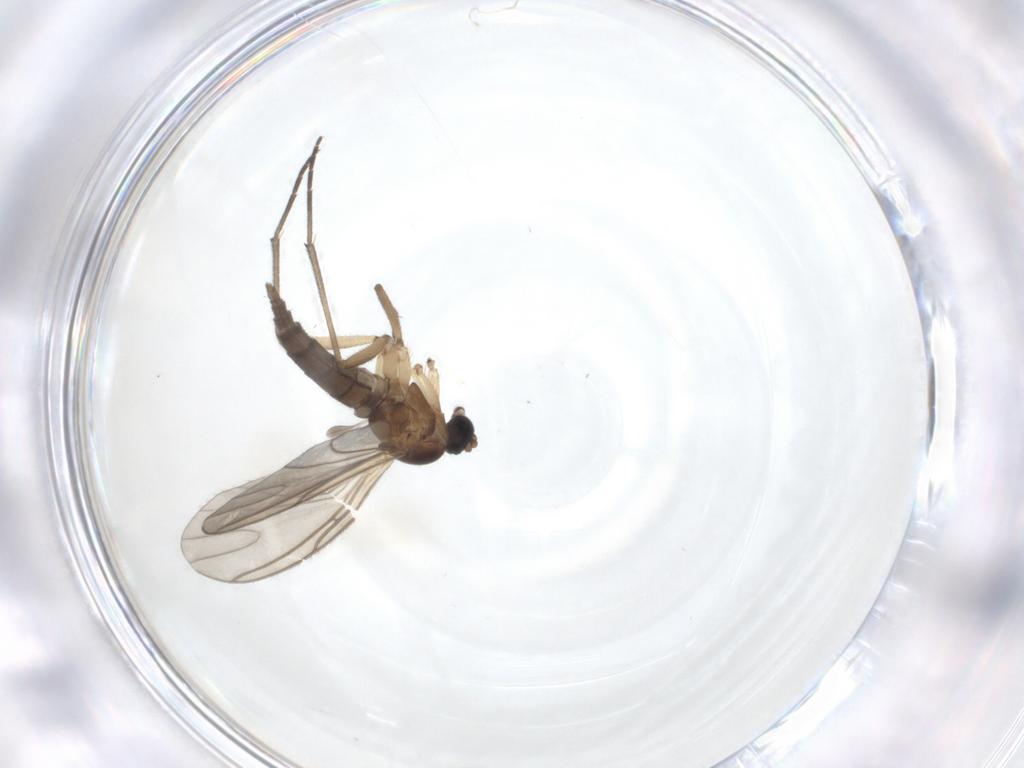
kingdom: Animalia
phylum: Arthropoda
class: Insecta
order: Diptera
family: Sciaridae
